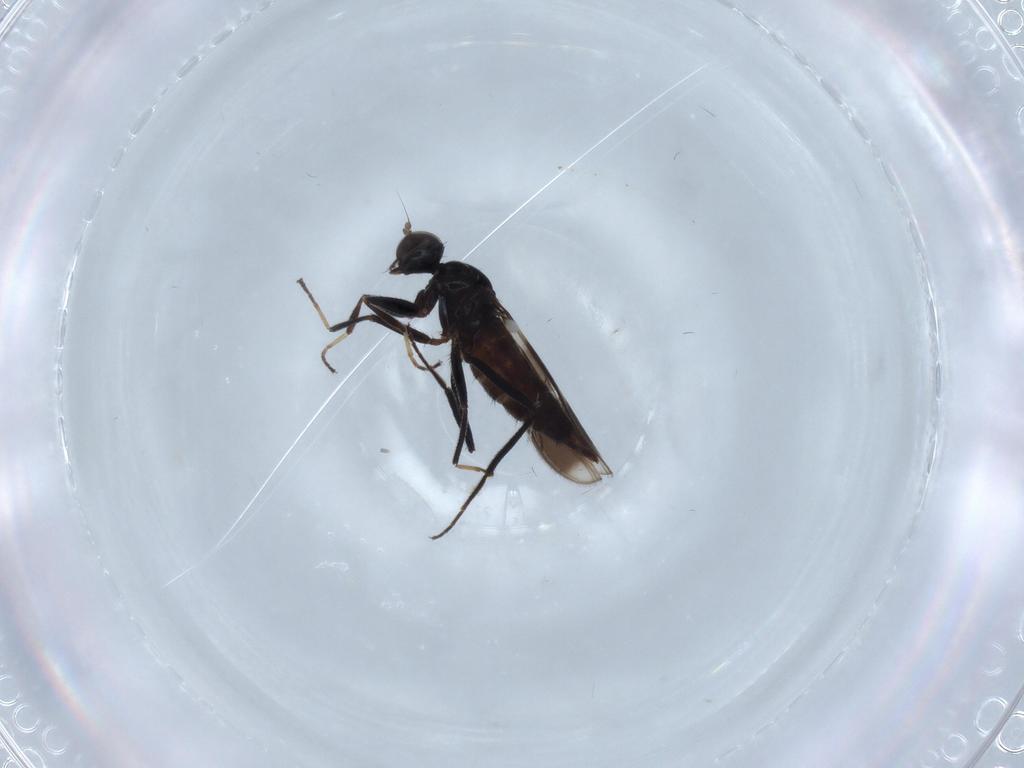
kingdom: Animalia
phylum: Arthropoda
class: Insecta
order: Diptera
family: Hybotidae
